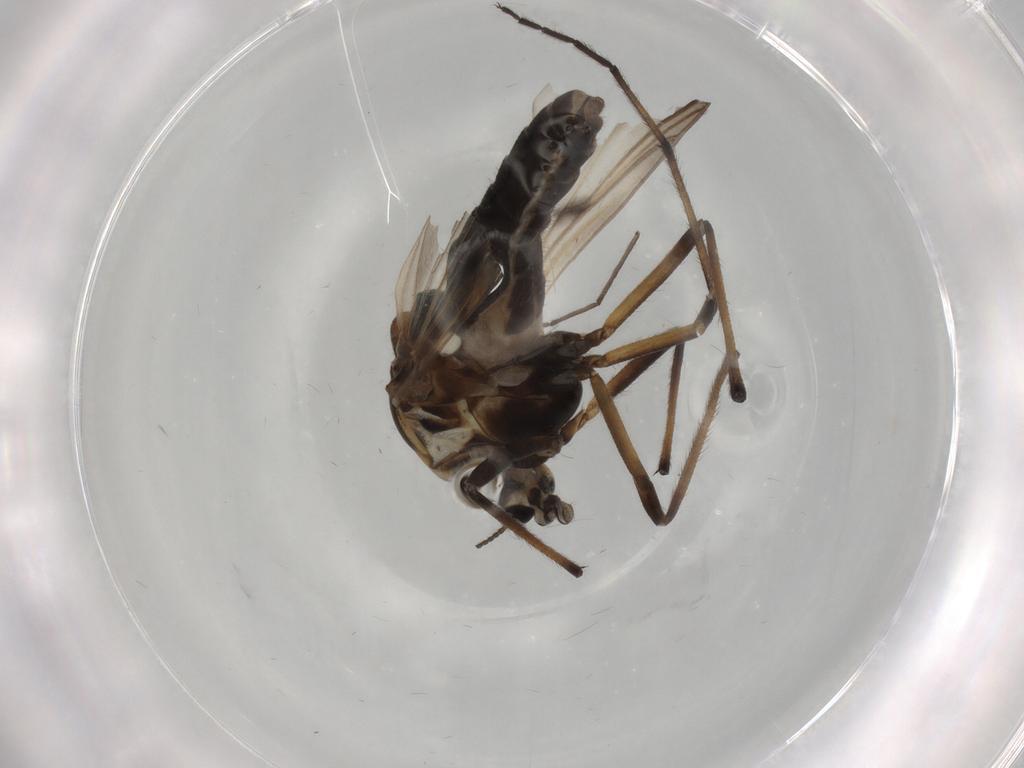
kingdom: Animalia
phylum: Arthropoda
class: Insecta
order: Diptera
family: Chironomidae
